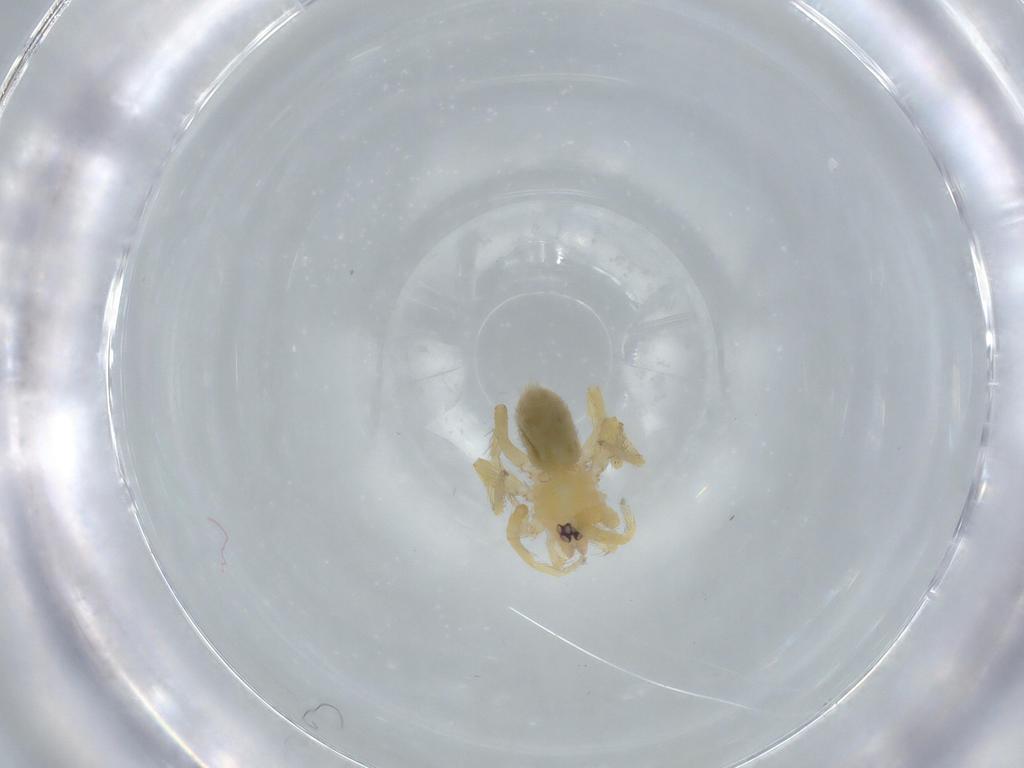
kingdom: Animalia
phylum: Arthropoda
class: Arachnida
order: Araneae
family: Oonopidae
